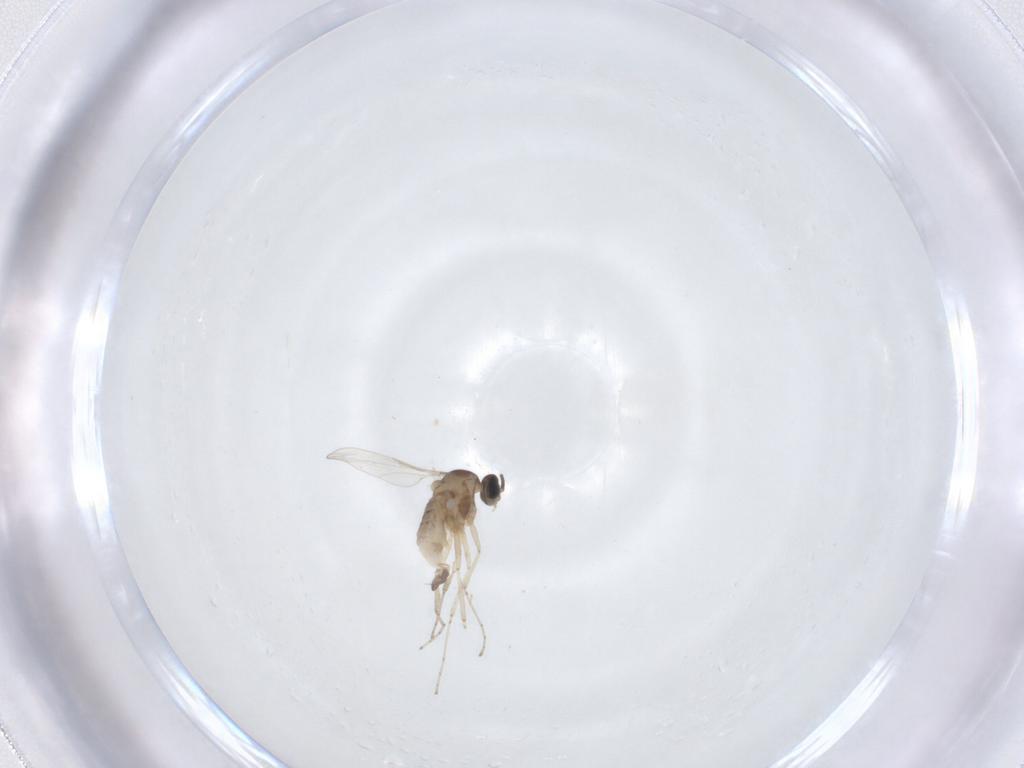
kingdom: Animalia
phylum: Arthropoda
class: Insecta
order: Diptera
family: Cecidomyiidae
